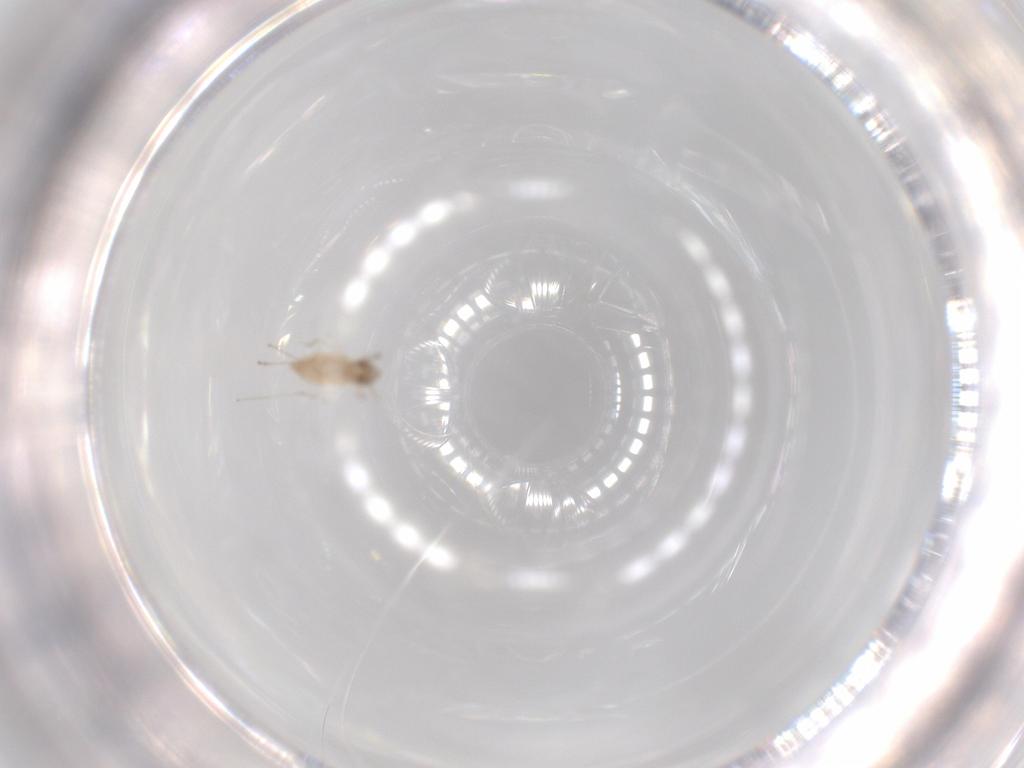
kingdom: Animalia
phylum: Arthropoda
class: Insecta
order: Diptera
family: Cecidomyiidae
